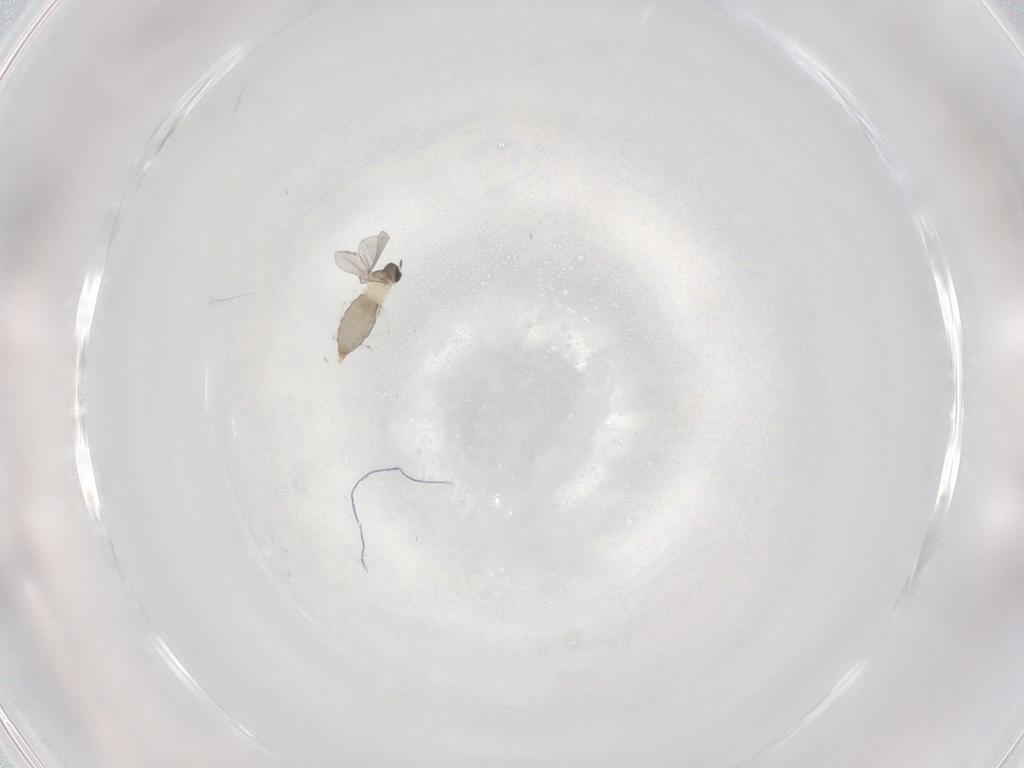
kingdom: Animalia
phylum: Arthropoda
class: Insecta
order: Diptera
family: Cecidomyiidae
